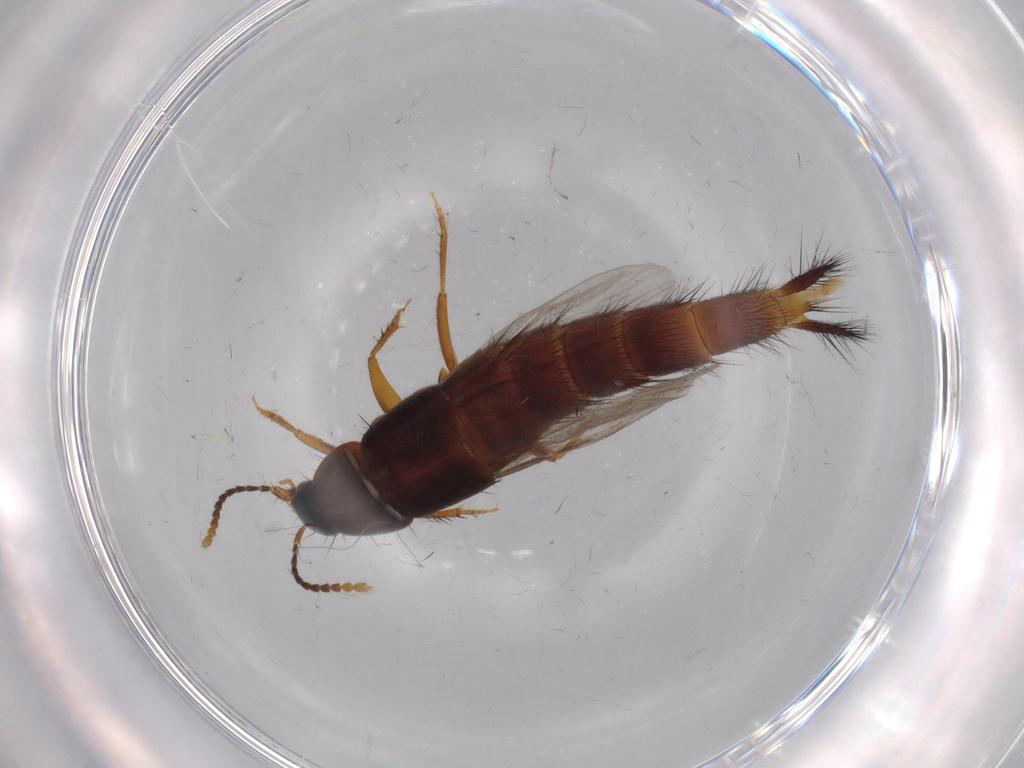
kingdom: Animalia
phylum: Arthropoda
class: Insecta
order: Coleoptera
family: Staphylinidae
